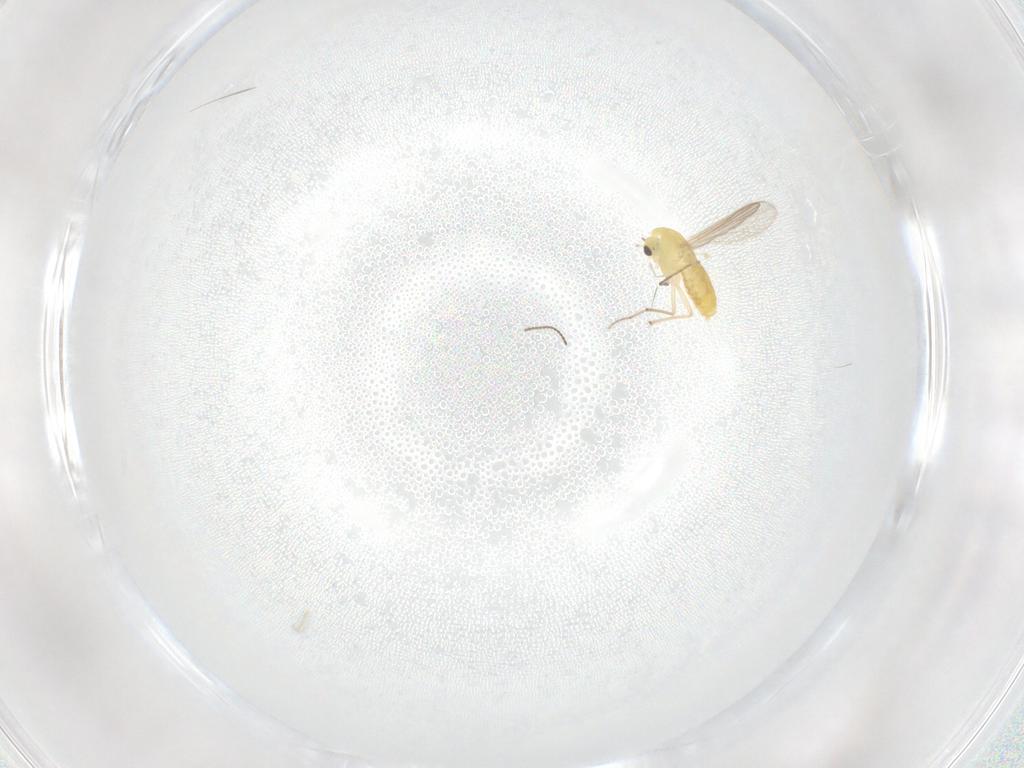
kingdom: Animalia
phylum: Arthropoda
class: Insecta
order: Diptera
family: Chironomidae
